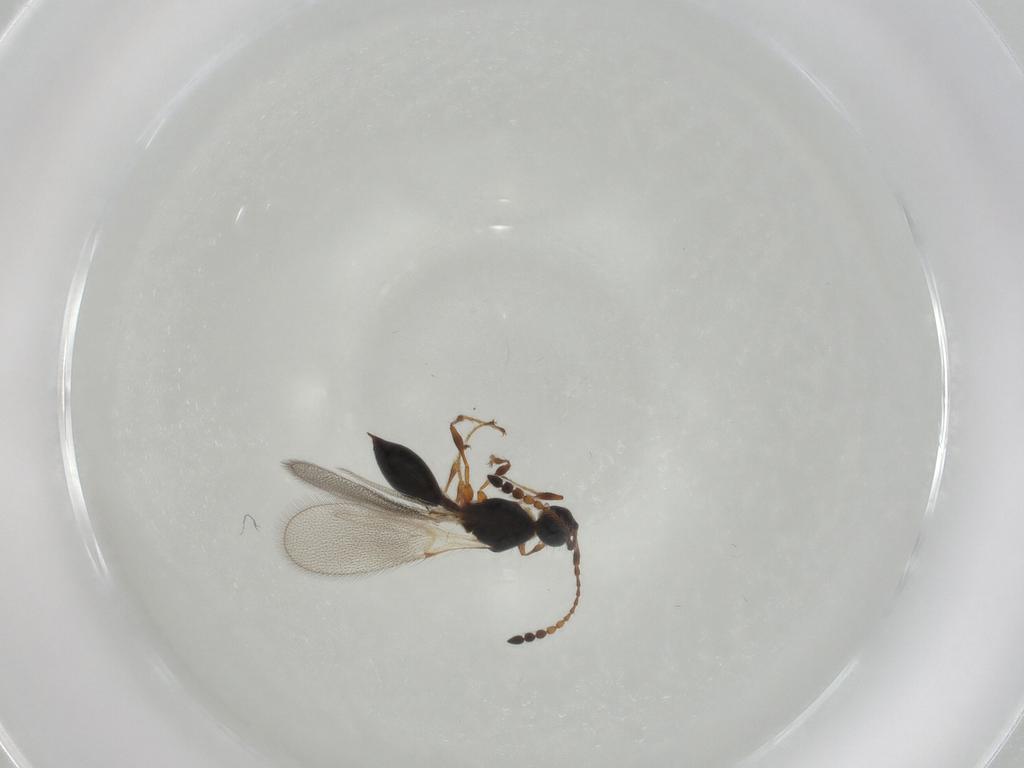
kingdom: Animalia
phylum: Arthropoda
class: Insecta
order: Hymenoptera
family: Diapriidae
